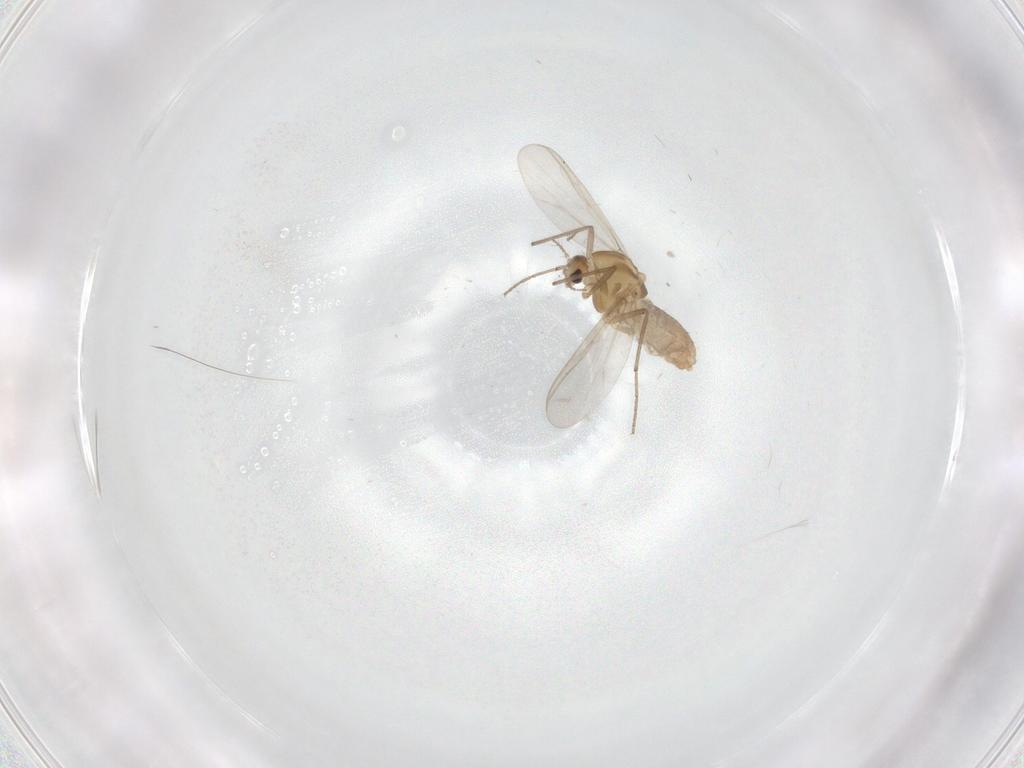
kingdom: Animalia
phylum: Arthropoda
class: Insecta
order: Diptera
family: Chironomidae
